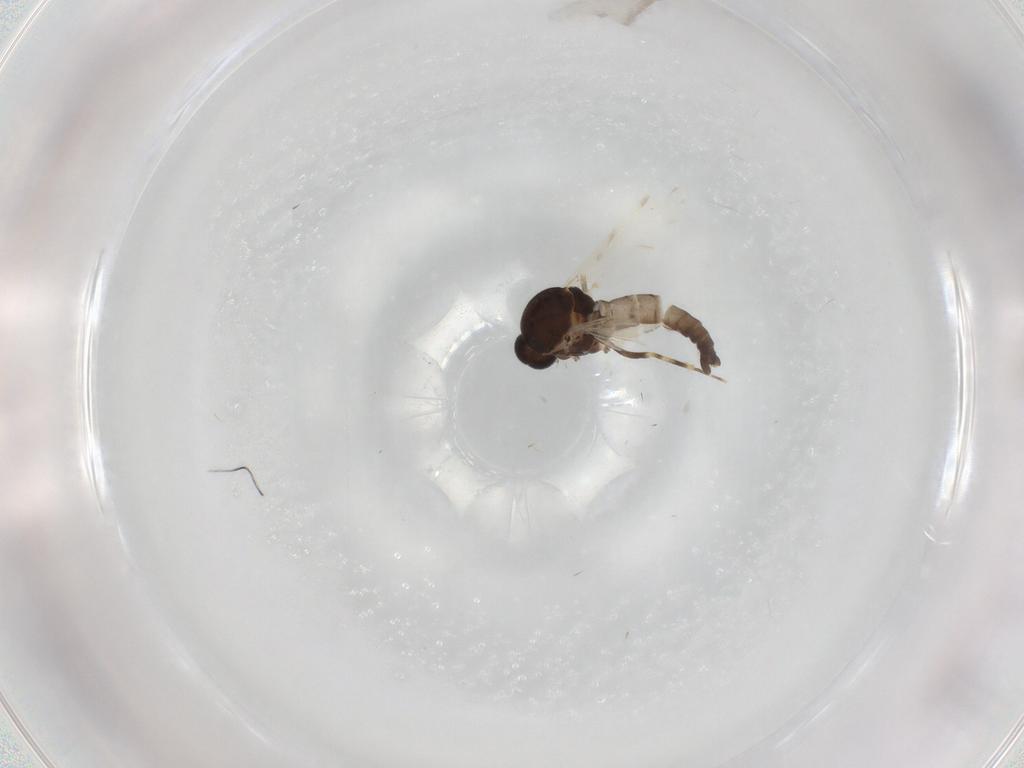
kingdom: Animalia
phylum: Arthropoda
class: Insecta
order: Diptera
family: Ceratopogonidae
